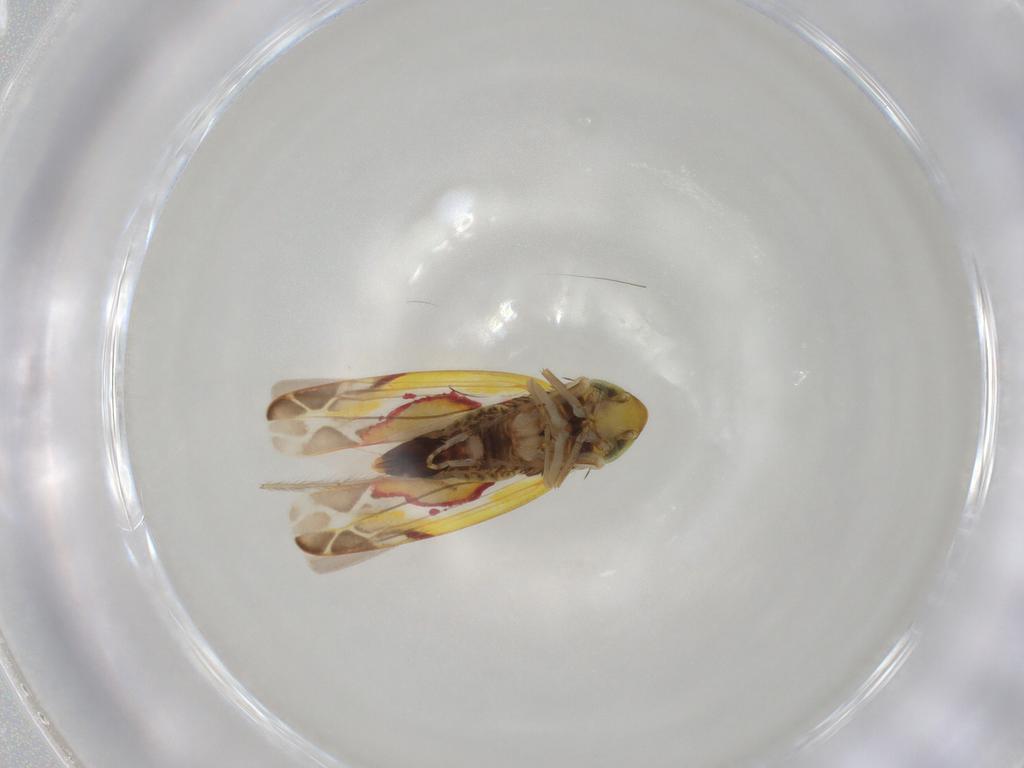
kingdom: Animalia
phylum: Arthropoda
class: Insecta
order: Hemiptera
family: Cicadellidae
